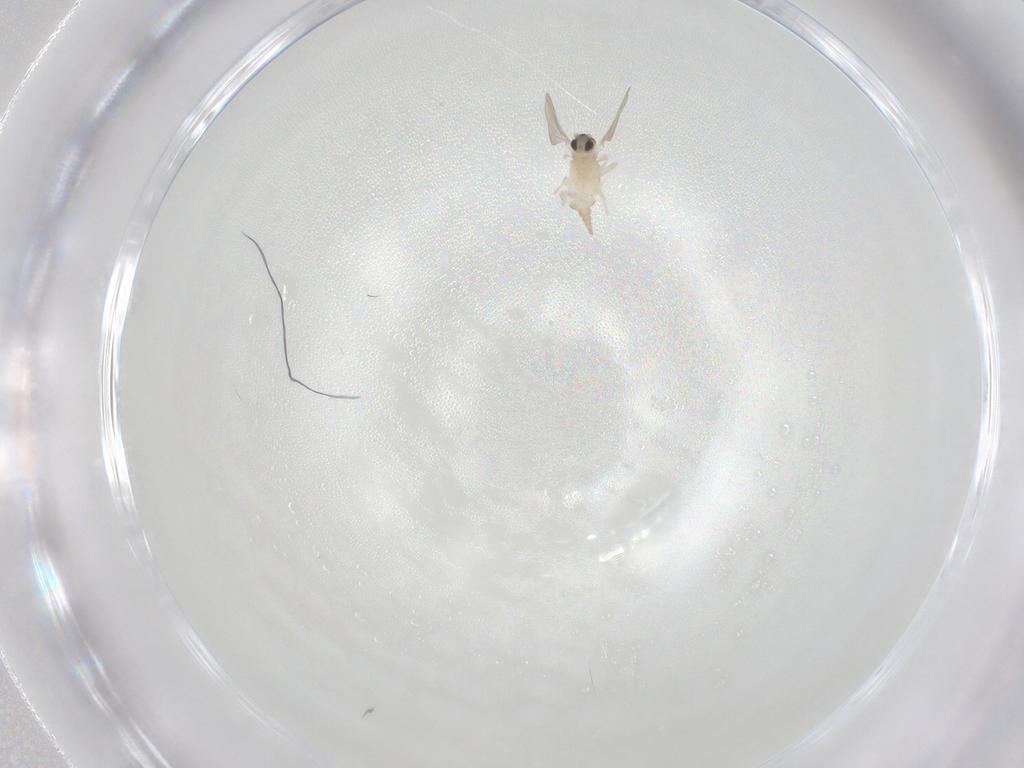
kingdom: Animalia
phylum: Arthropoda
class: Insecta
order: Diptera
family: Cecidomyiidae
